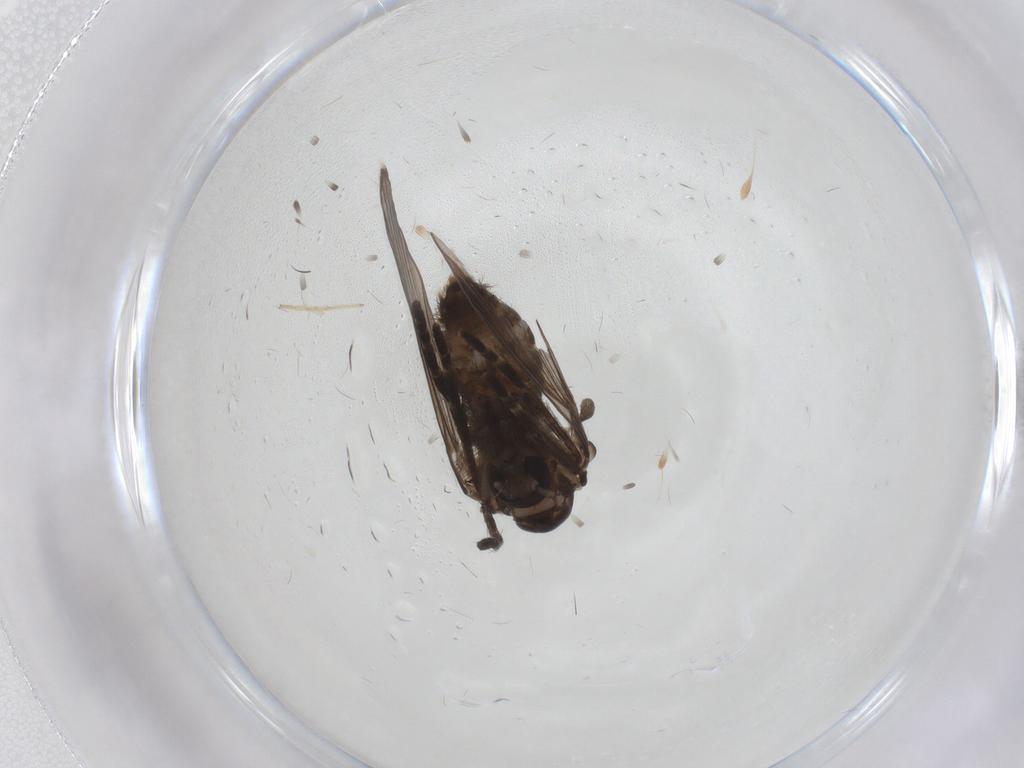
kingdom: Animalia
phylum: Arthropoda
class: Insecta
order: Diptera
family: Psychodidae
